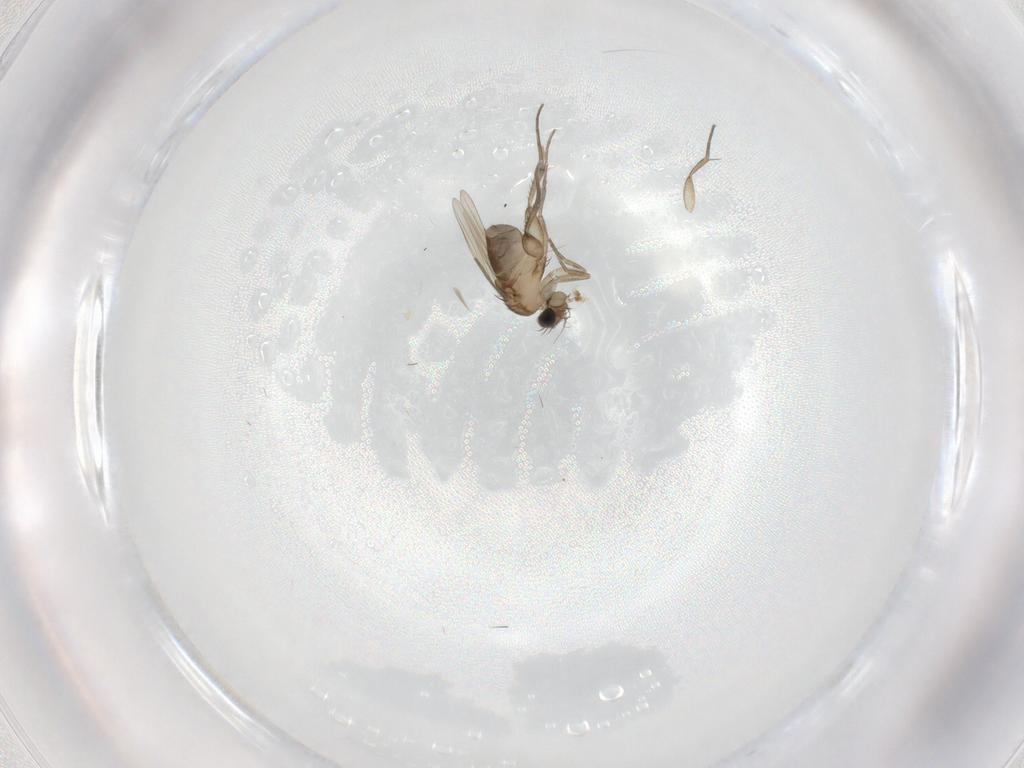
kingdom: Animalia
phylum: Arthropoda
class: Insecta
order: Diptera
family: Phoridae
